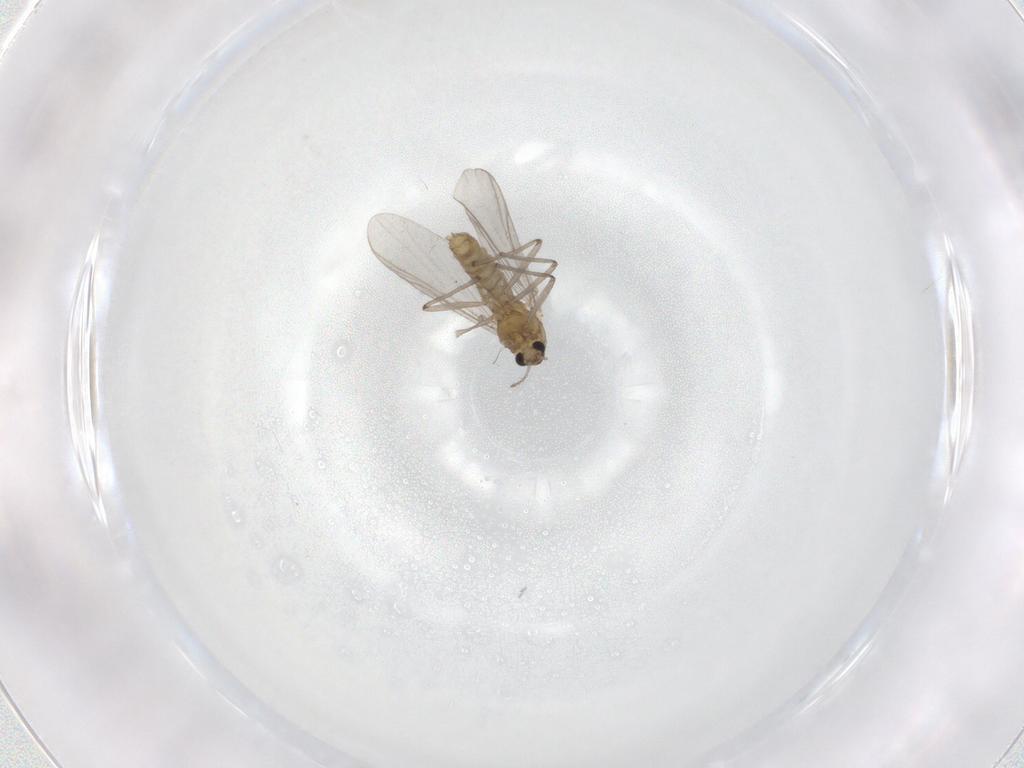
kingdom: Animalia
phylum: Arthropoda
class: Insecta
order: Diptera
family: Chironomidae
